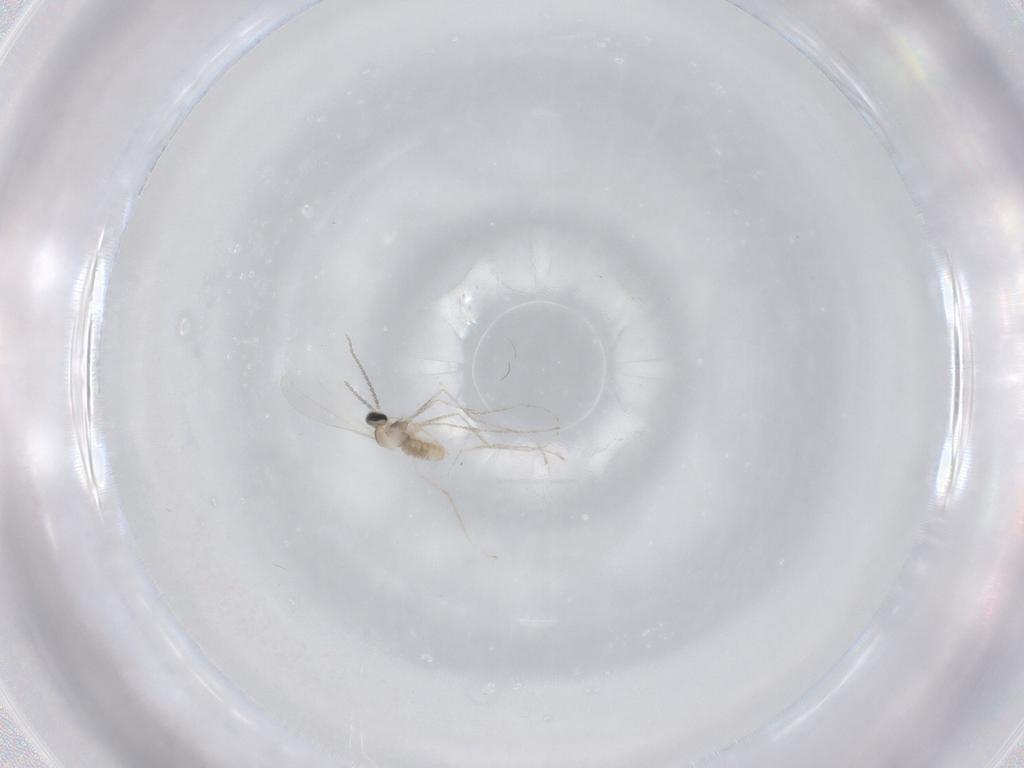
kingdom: Animalia
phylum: Arthropoda
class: Insecta
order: Diptera
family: Cecidomyiidae
